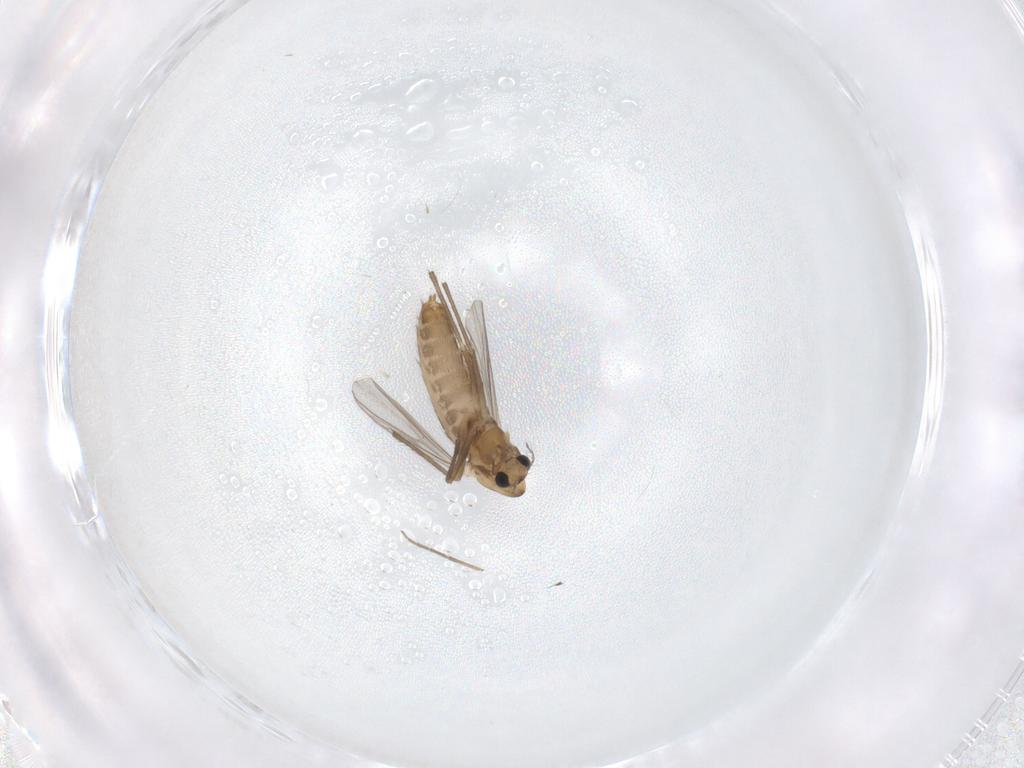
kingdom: Animalia
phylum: Arthropoda
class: Insecta
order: Diptera
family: Chironomidae
